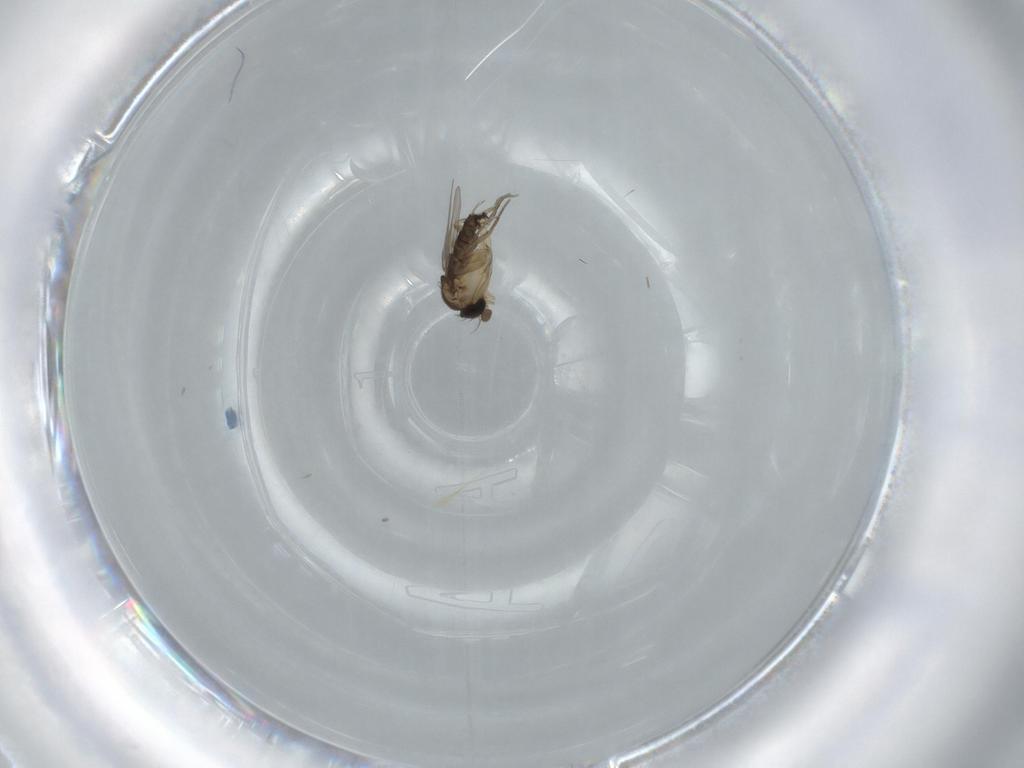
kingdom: Animalia
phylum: Arthropoda
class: Insecta
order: Diptera
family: Phoridae
